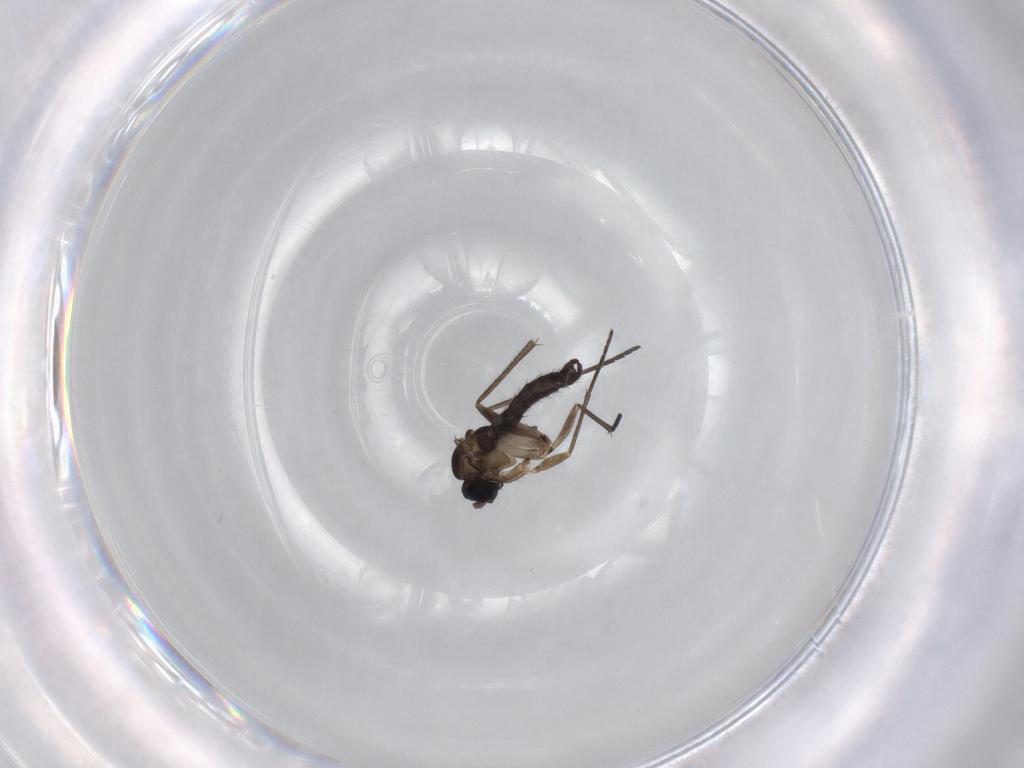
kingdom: Animalia
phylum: Arthropoda
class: Insecta
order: Diptera
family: Sciaridae
